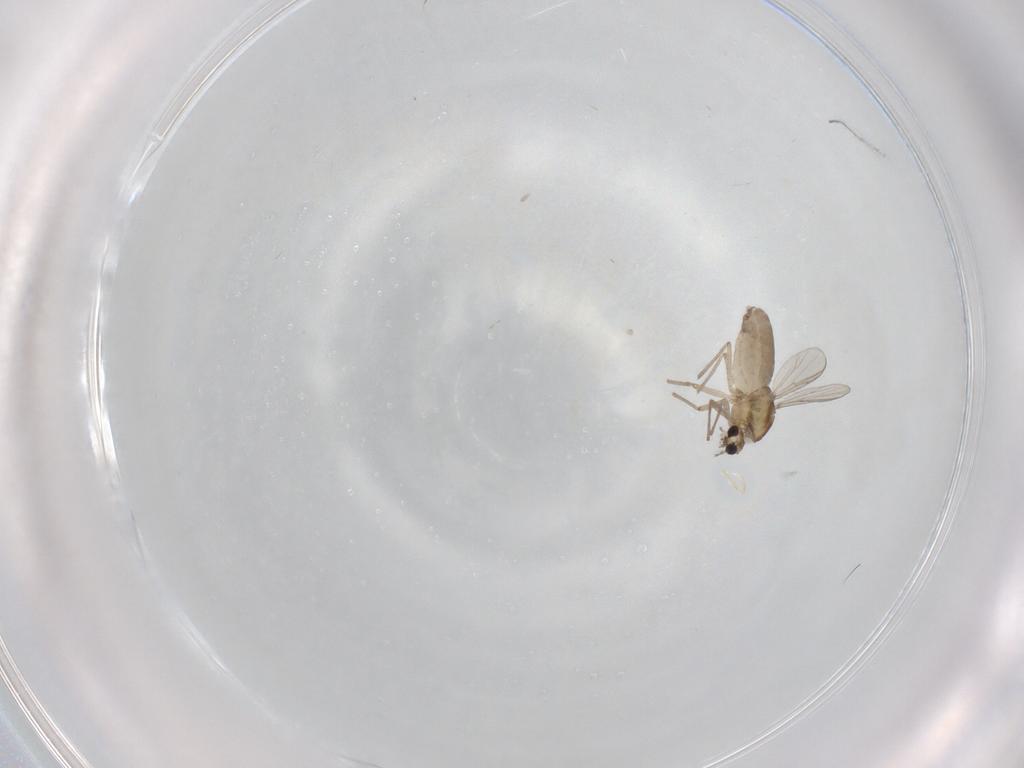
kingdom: Animalia
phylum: Arthropoda
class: Insecta
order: Diptera
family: Chironomidae
